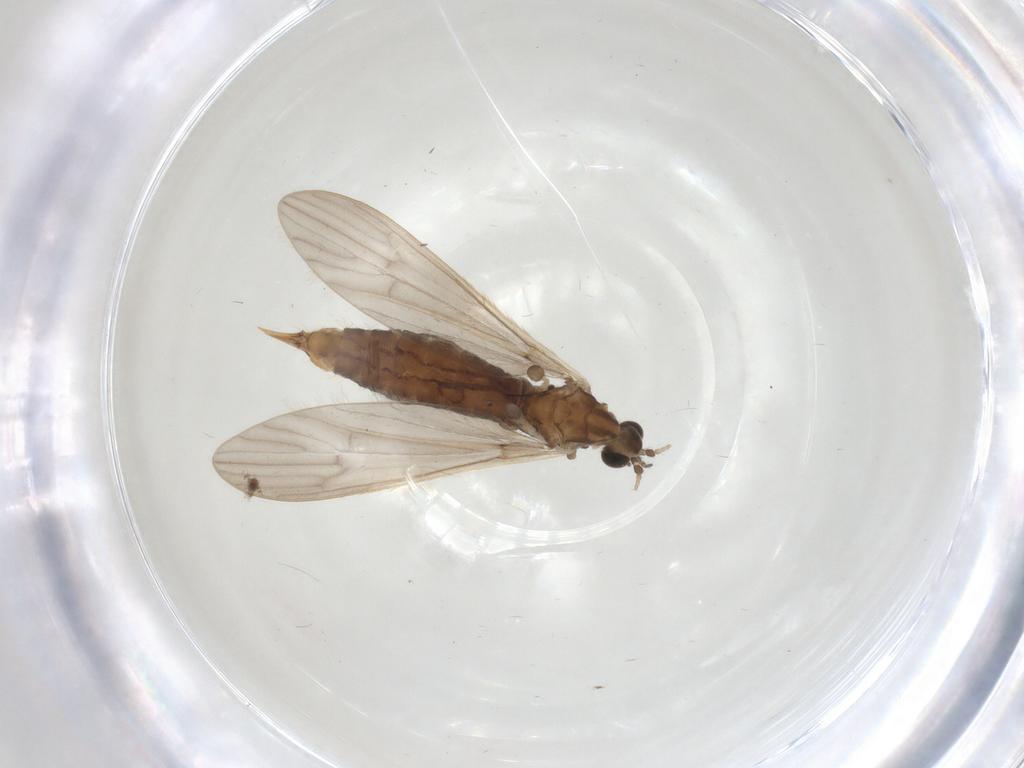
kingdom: Animalia
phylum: Arthropoda
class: Insecta
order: Diptera
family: Limoniidae
